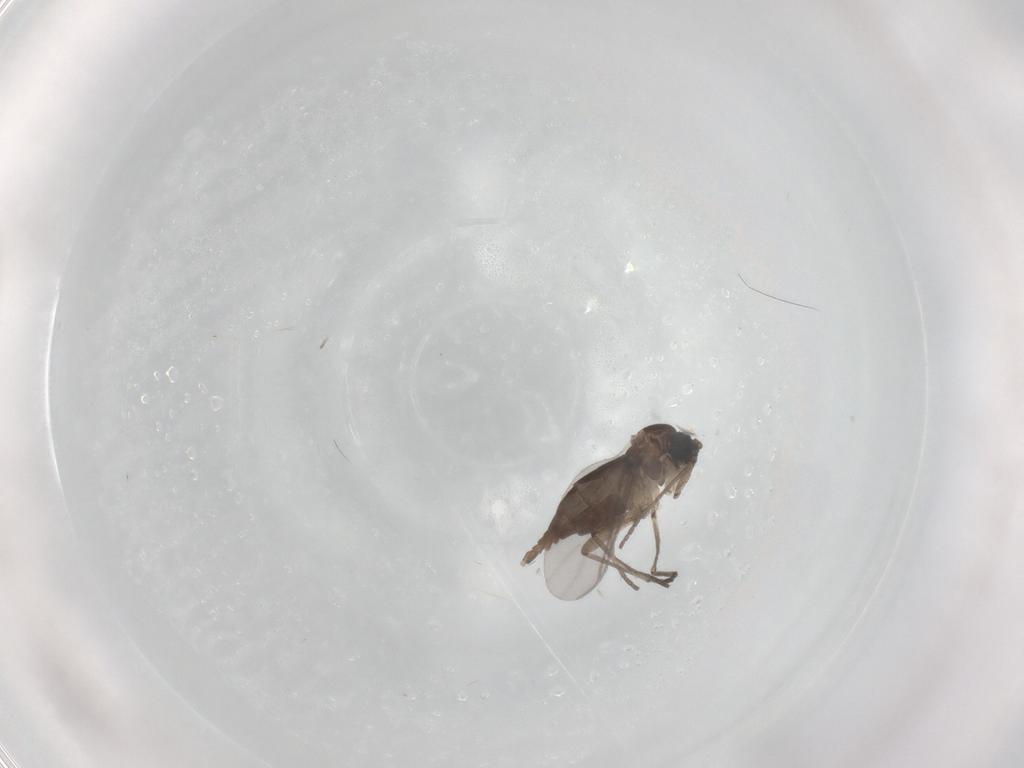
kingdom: Animalia
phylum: Arthropoda
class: Insecta
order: Diptera
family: Sciaridae
